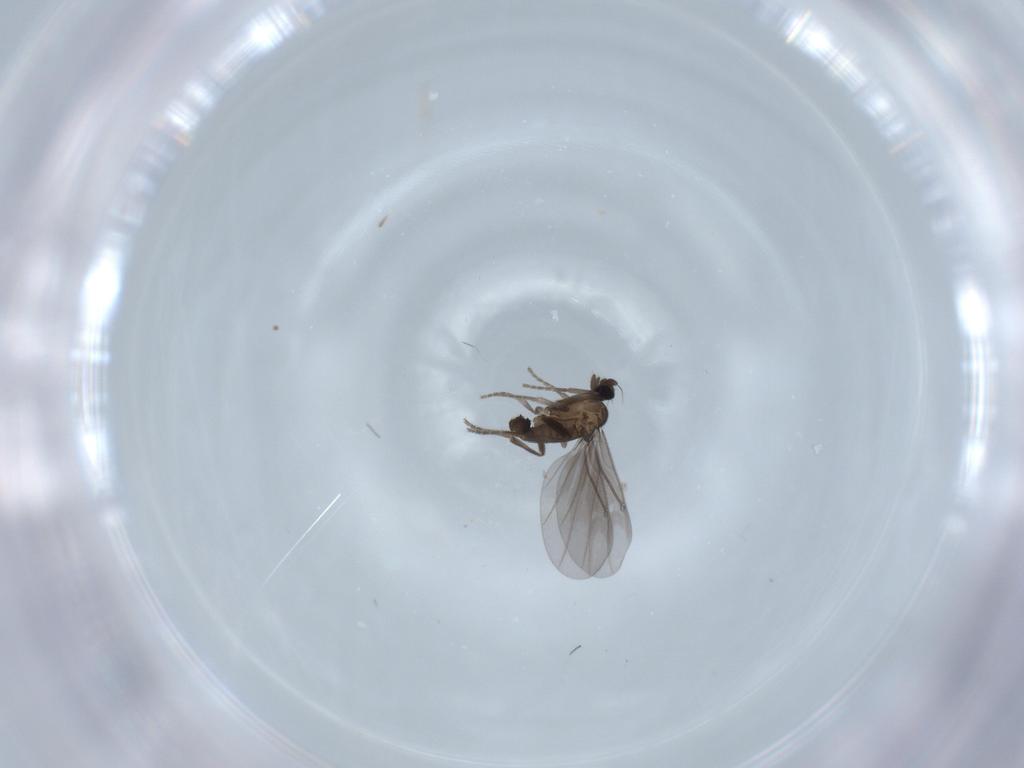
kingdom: Animalia
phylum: Arthropoda
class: Insecta
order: Diptera
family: Phoridae
